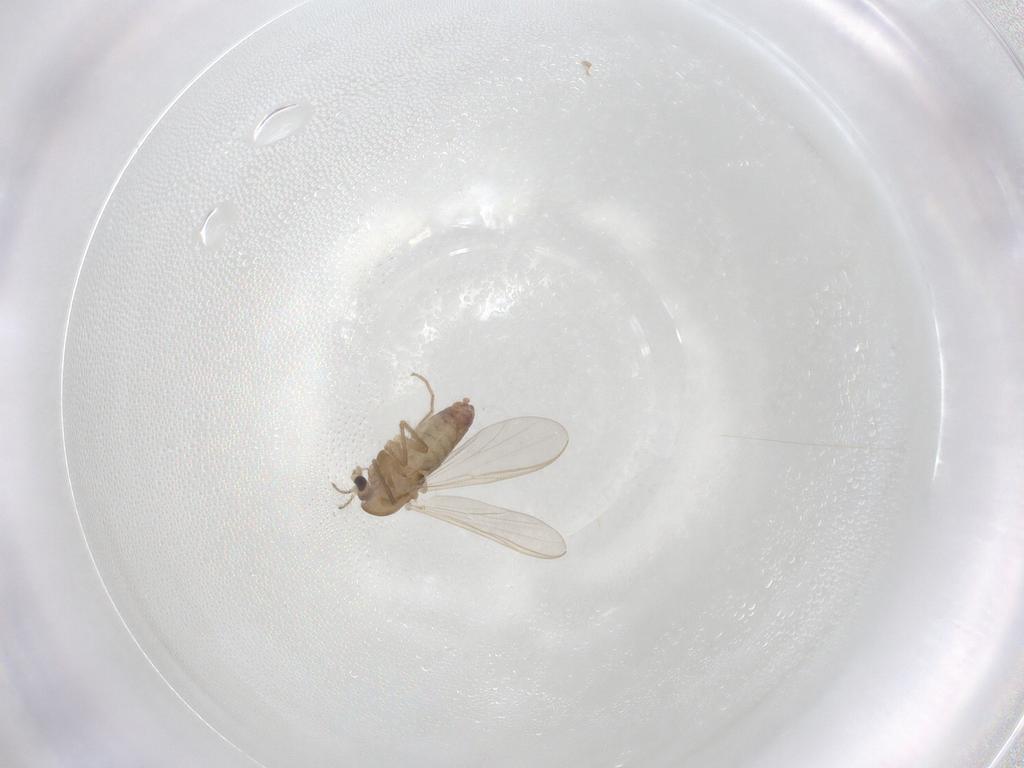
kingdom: Animalia
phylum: Arthropoda
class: Insecta
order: Diptera
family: Chironomidae
